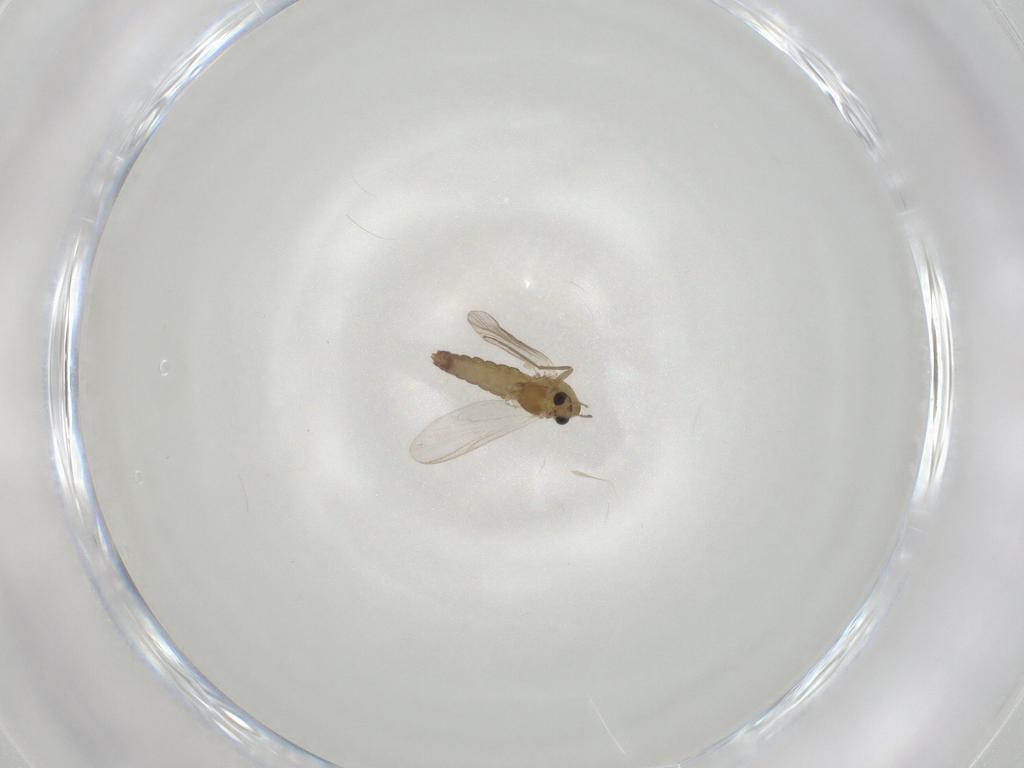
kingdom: Animalia
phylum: Arthropoda
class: Insecta
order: Diptera
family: Chironomidae
